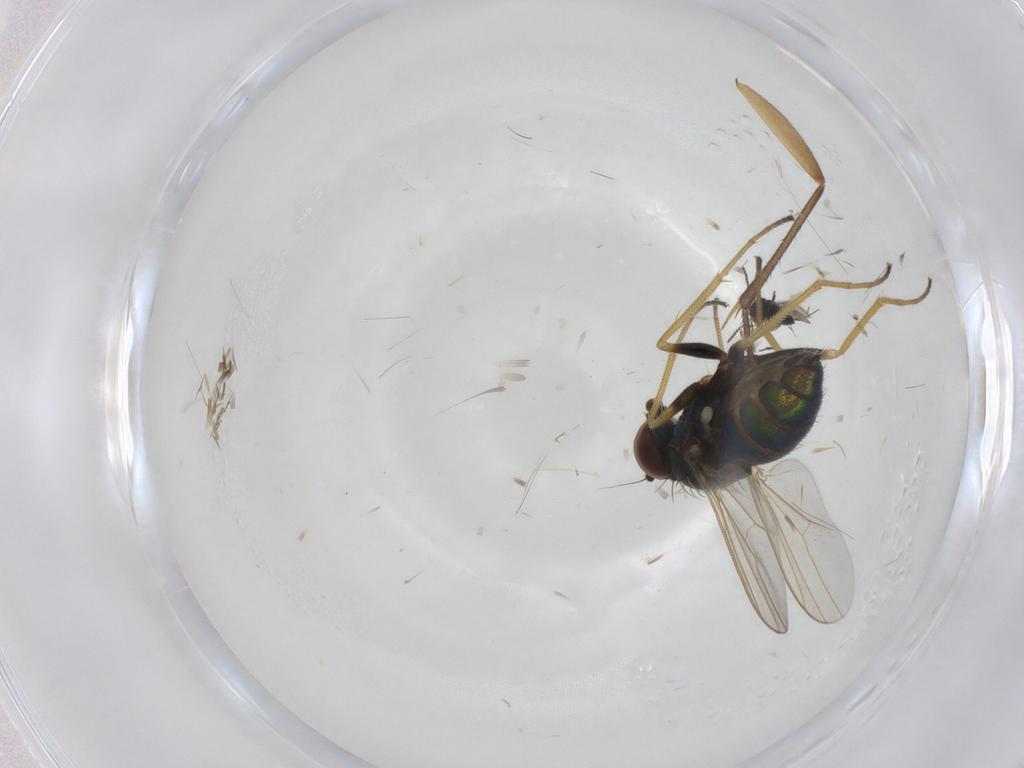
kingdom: Animalia
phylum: Arthropoda
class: Insecta
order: Diptera
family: Dolichopodidae
